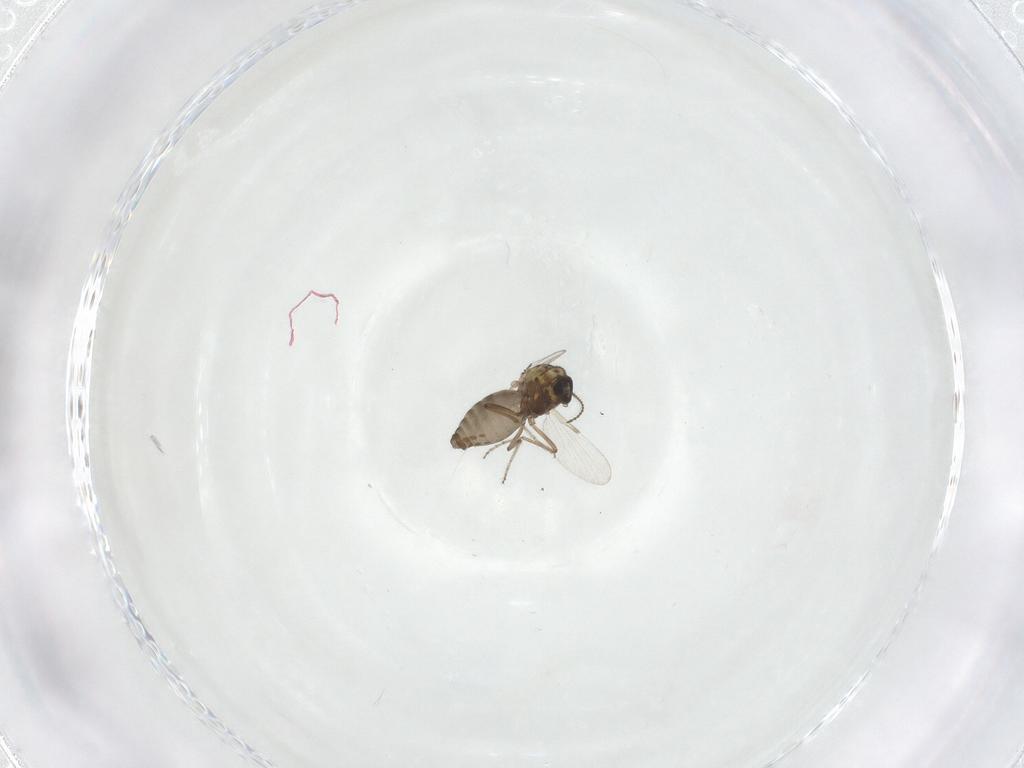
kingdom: Animalia
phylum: Arthropoda
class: Insecta
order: Diptera
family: Ceratopogonidae
